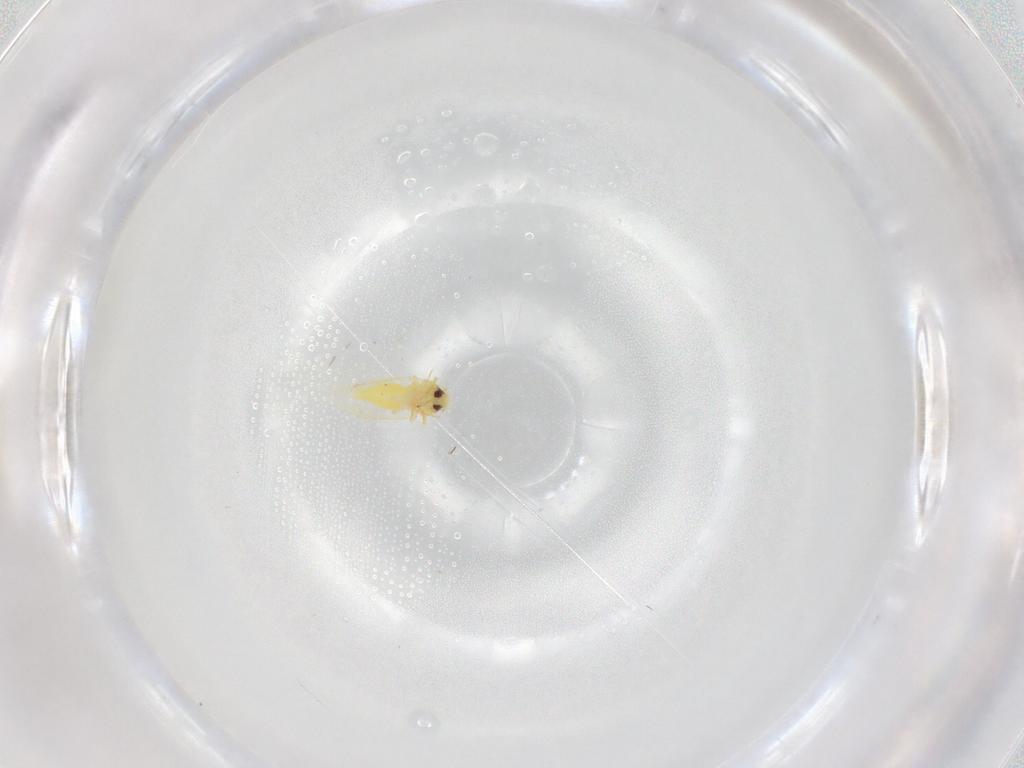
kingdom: Animalia
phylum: Arthropoda
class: Insecta
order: Hemiptera
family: Aleyrodidae
